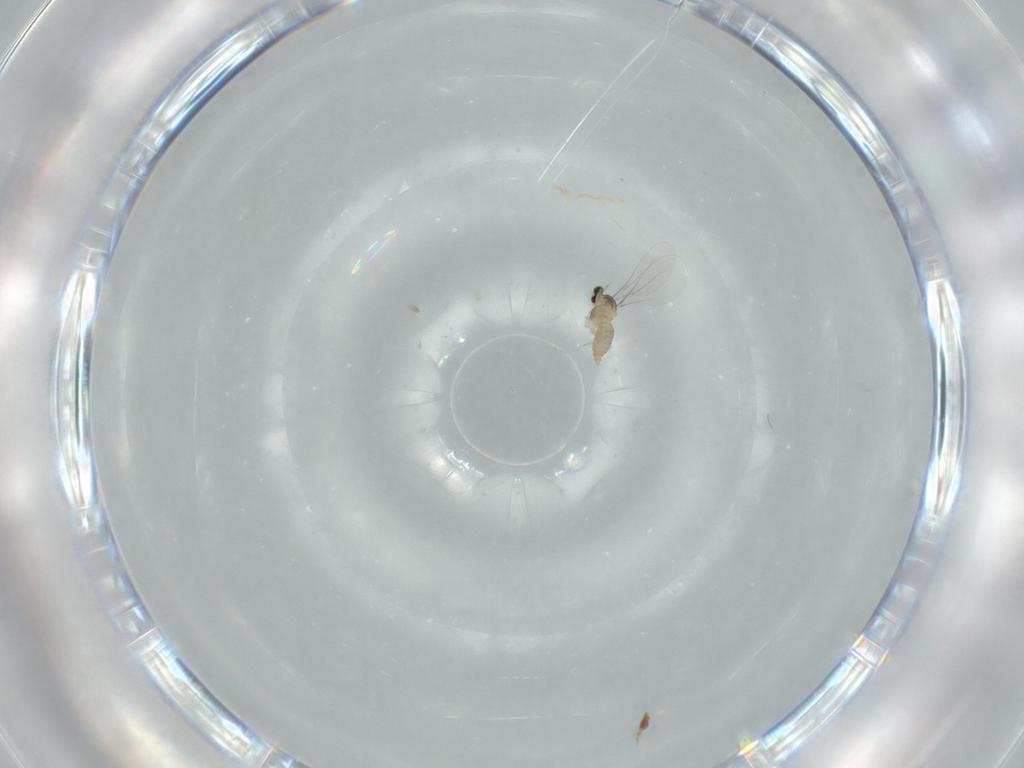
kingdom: Animalia
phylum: Arthropoda
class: Insecta
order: Diptera
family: Cecidomyiidae
